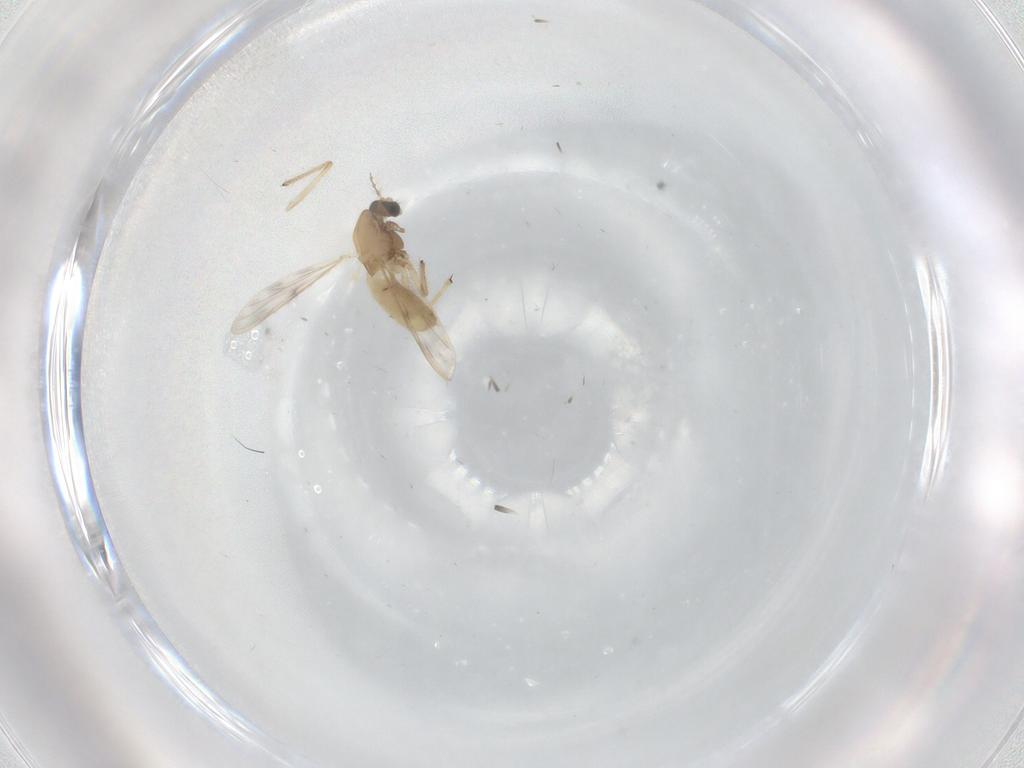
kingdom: Animalia
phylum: Arthropoda
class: Insecta
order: Diptera
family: Chironomidae
